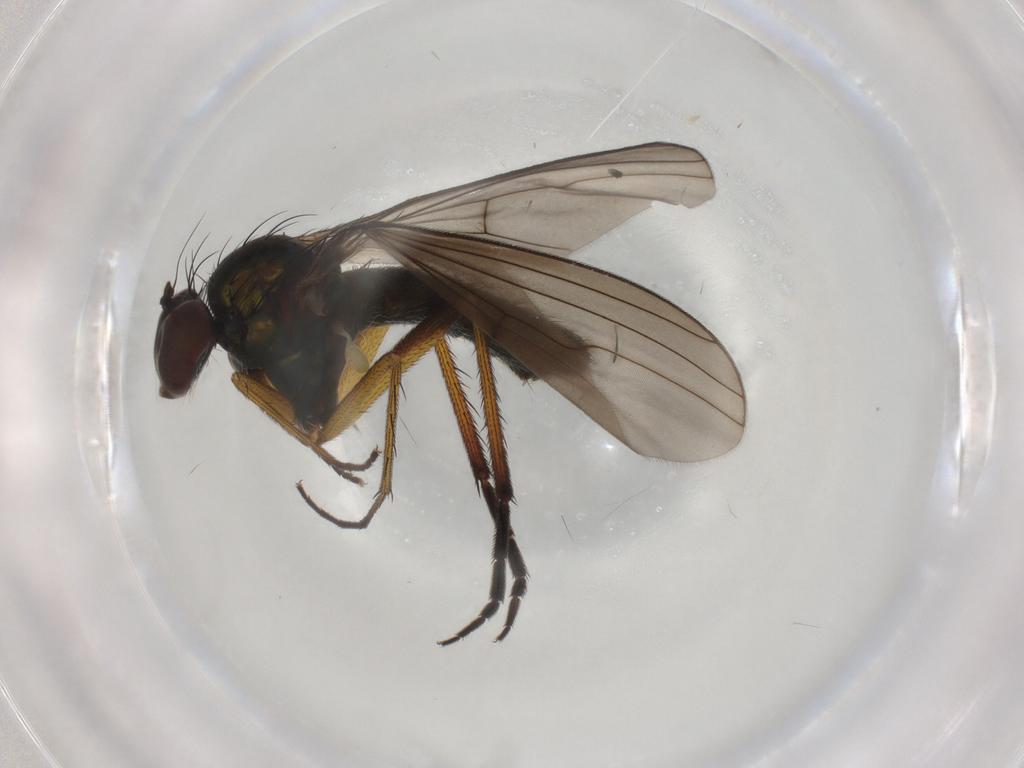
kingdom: Animalia
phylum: Arthropoda
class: Insecta
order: Diptera
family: Dolichopodidae
